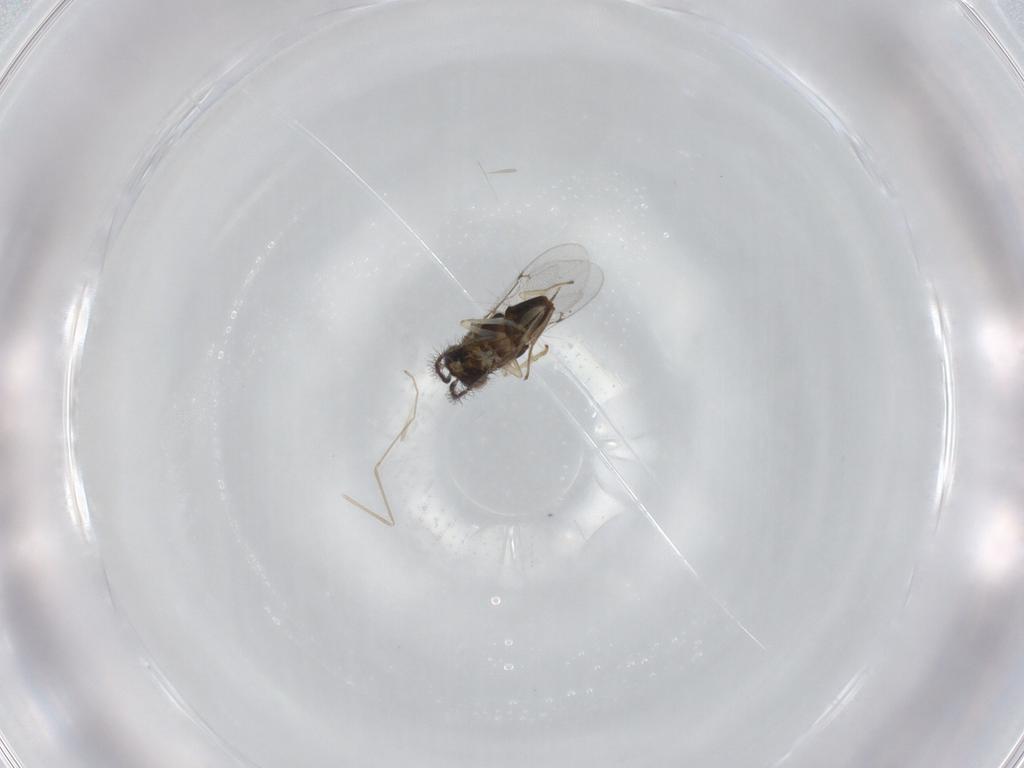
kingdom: Animalia
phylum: Arthropoda
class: Insecta
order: Hymenoptera
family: Encyrtidae
